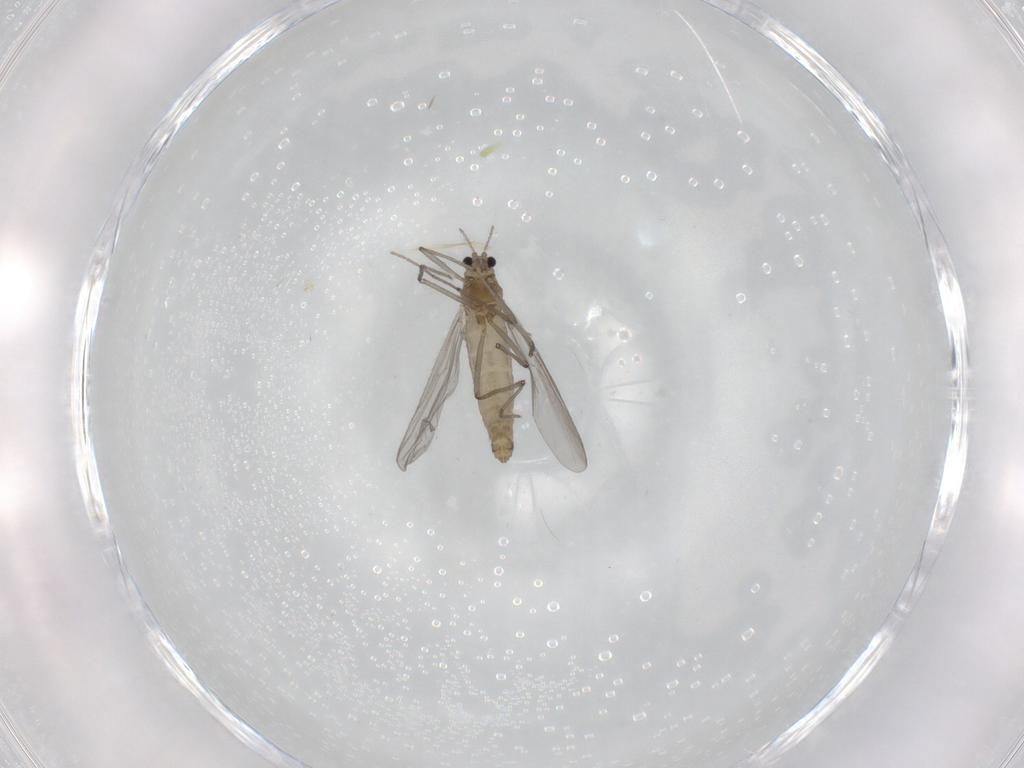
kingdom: Animalia
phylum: Arthropoda
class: Insecta
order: Diptera
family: Chironomidae
